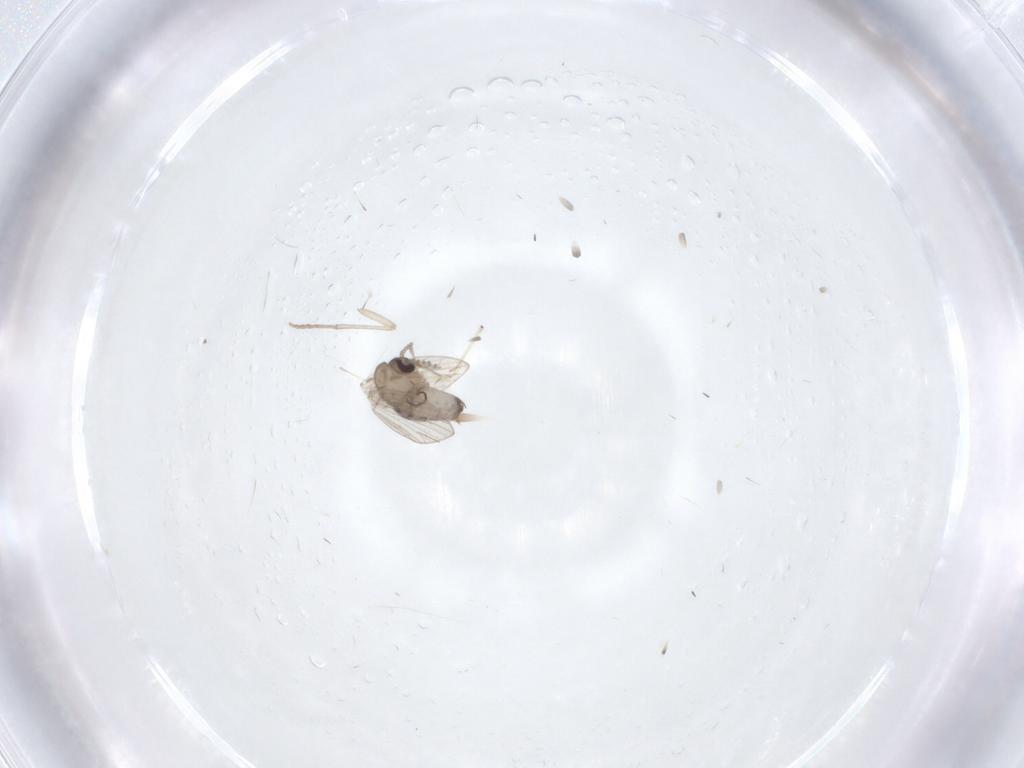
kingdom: Animalia
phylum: Arthropoda
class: Insecta
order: Diptera
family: Psychodidae
